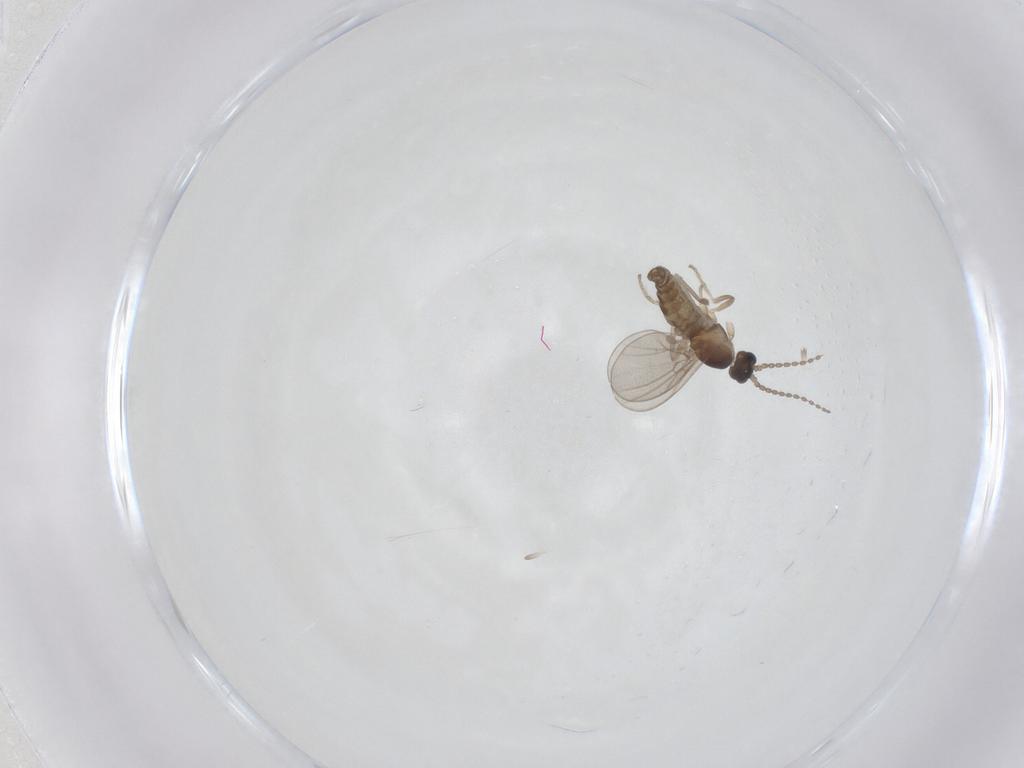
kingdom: Animalia
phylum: Arthropoda
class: Insecta
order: Diptera
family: Cecidomyiidae
